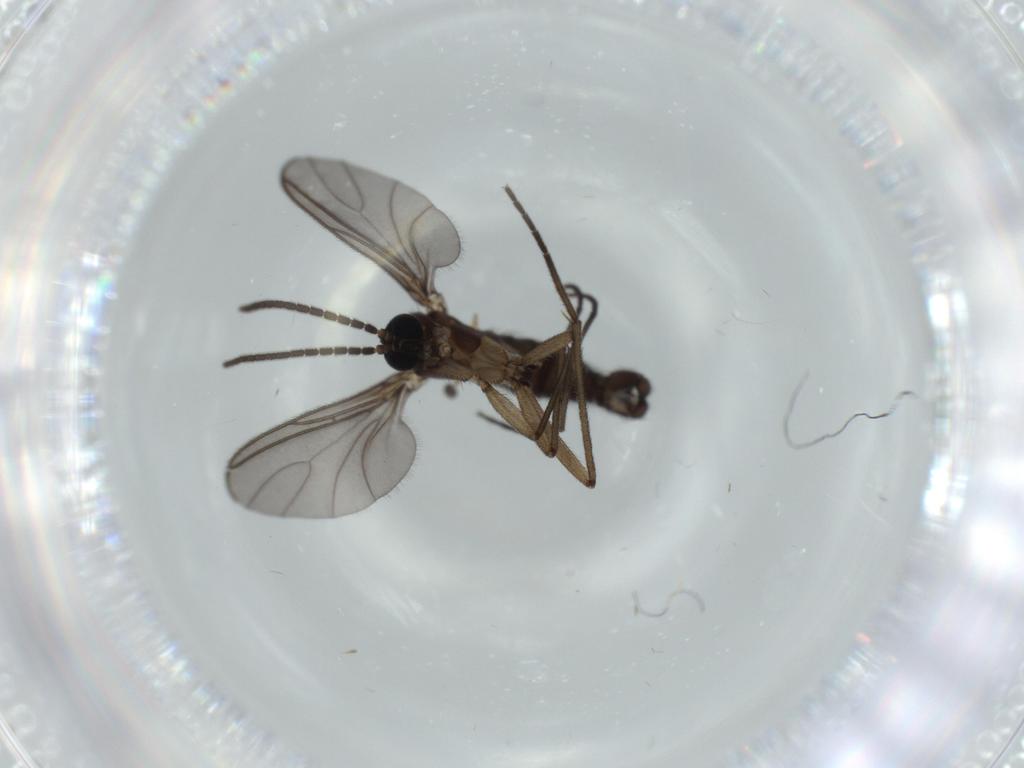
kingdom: Animalia
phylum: Arthropoda
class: Insecta
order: Diptera
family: Sciaridae
